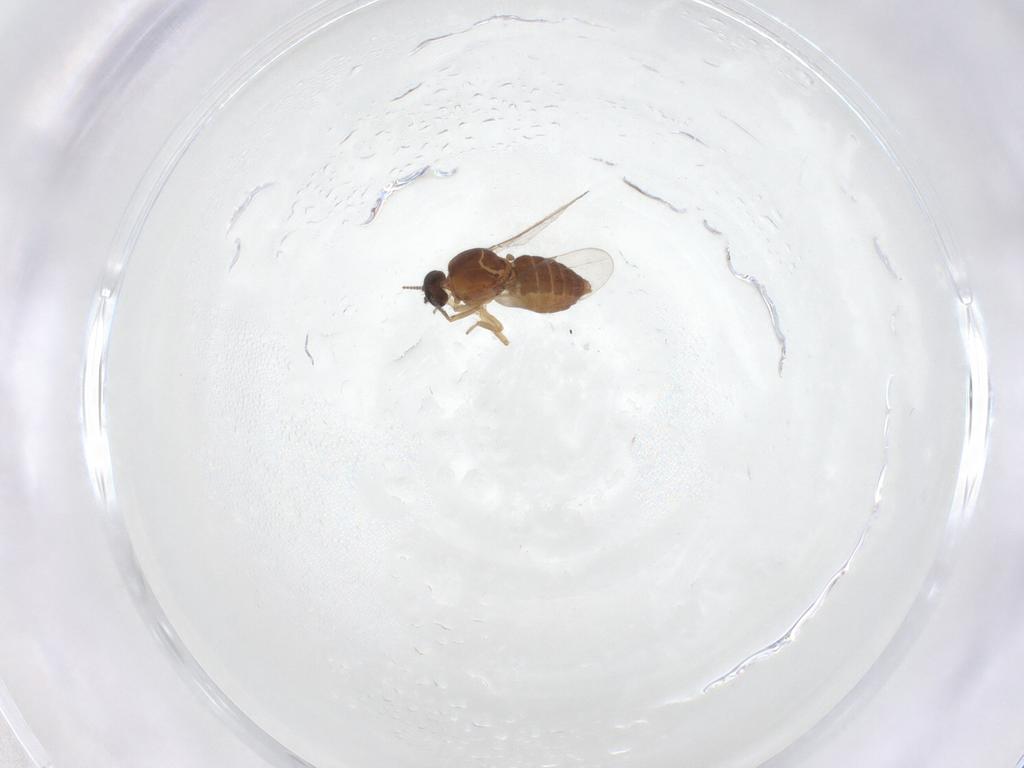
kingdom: Animalia
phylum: Arthropoda
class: Insecta
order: Diptera
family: Ceratopogonidae
